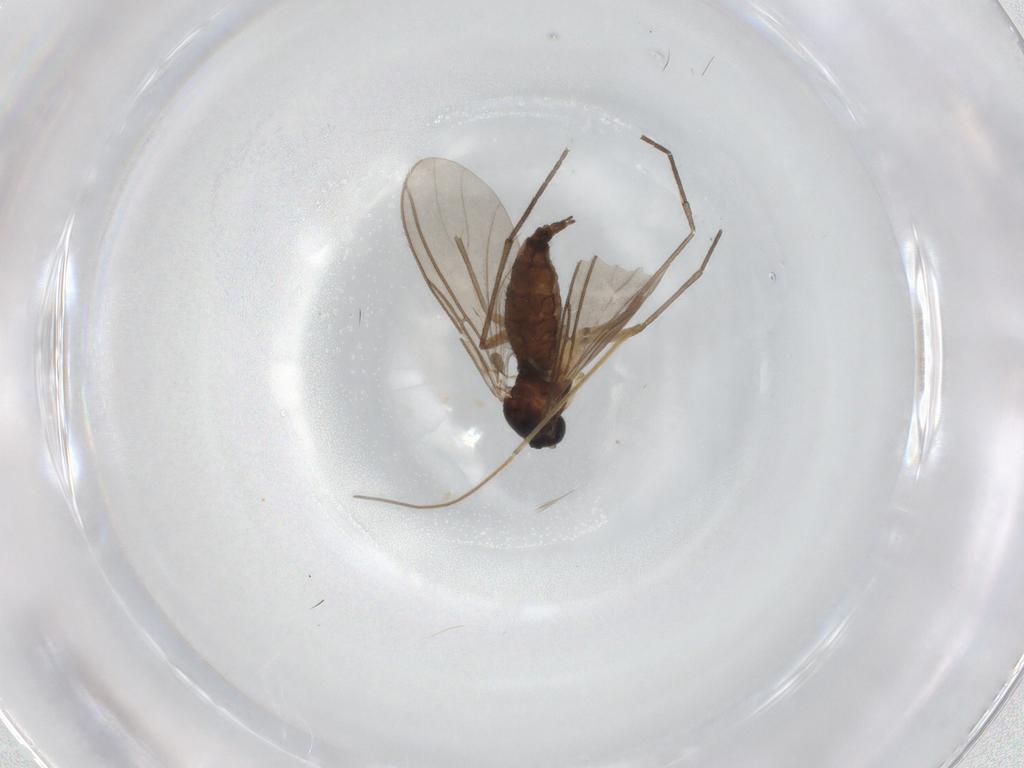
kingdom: Animalia
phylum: Arthropoda
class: Insecta
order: Diptera
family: Sciaridae
